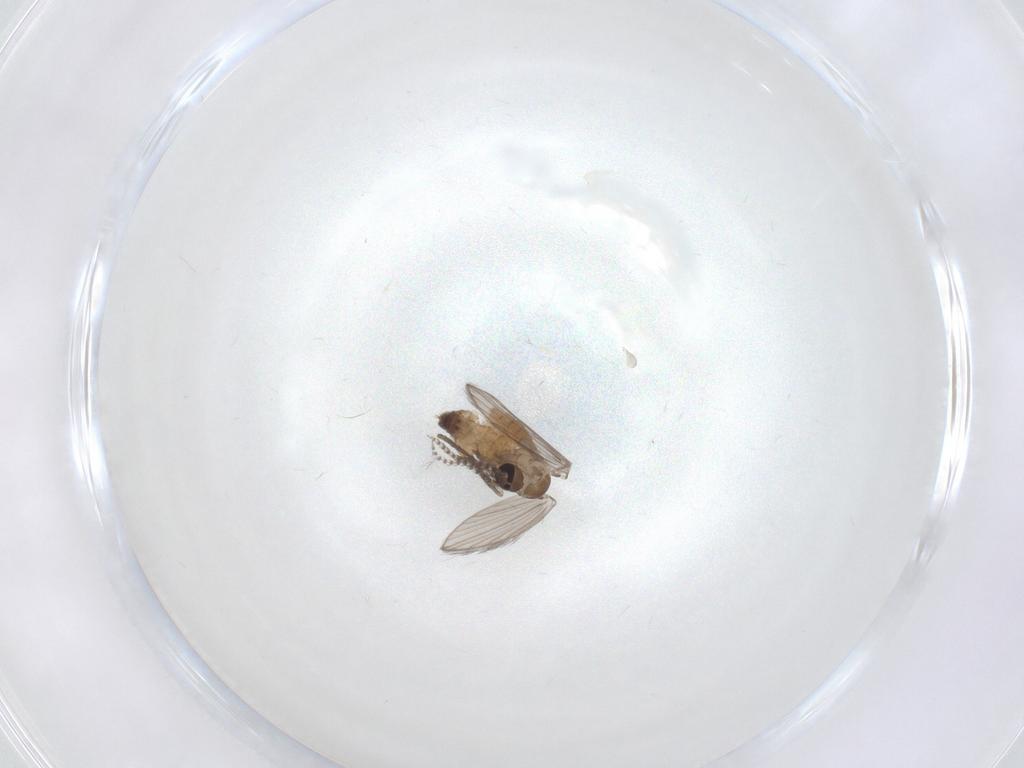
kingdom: Animalia
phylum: Arthropoda
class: Insecta
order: Diptera
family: Psychodidae
